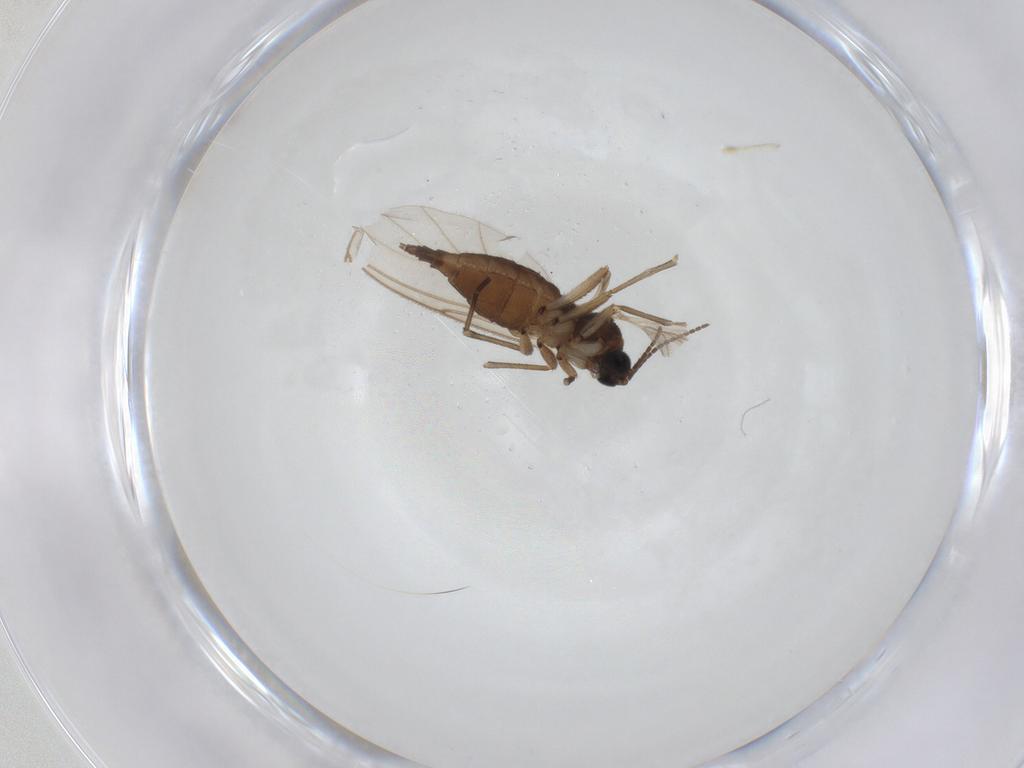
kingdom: Animalia
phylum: Arthropoda
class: Insecta
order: Diptera
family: Sciaridae
